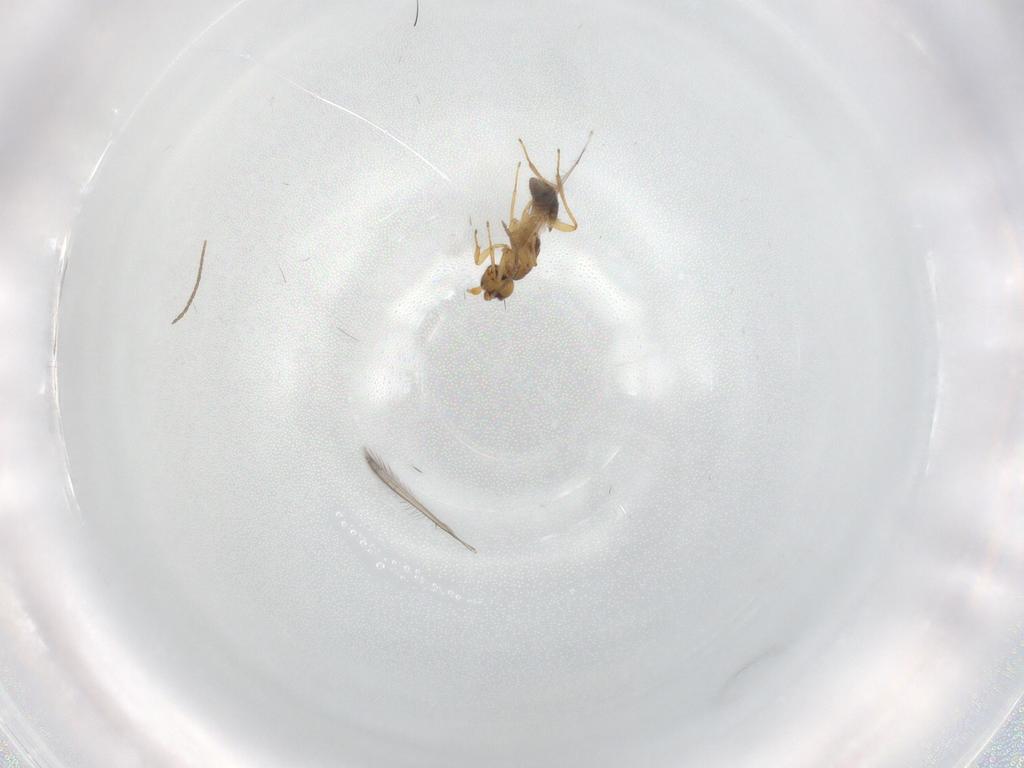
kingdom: Animalia
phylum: Arthropoda
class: Insecta
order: Hymenoptera
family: Mymaridae
